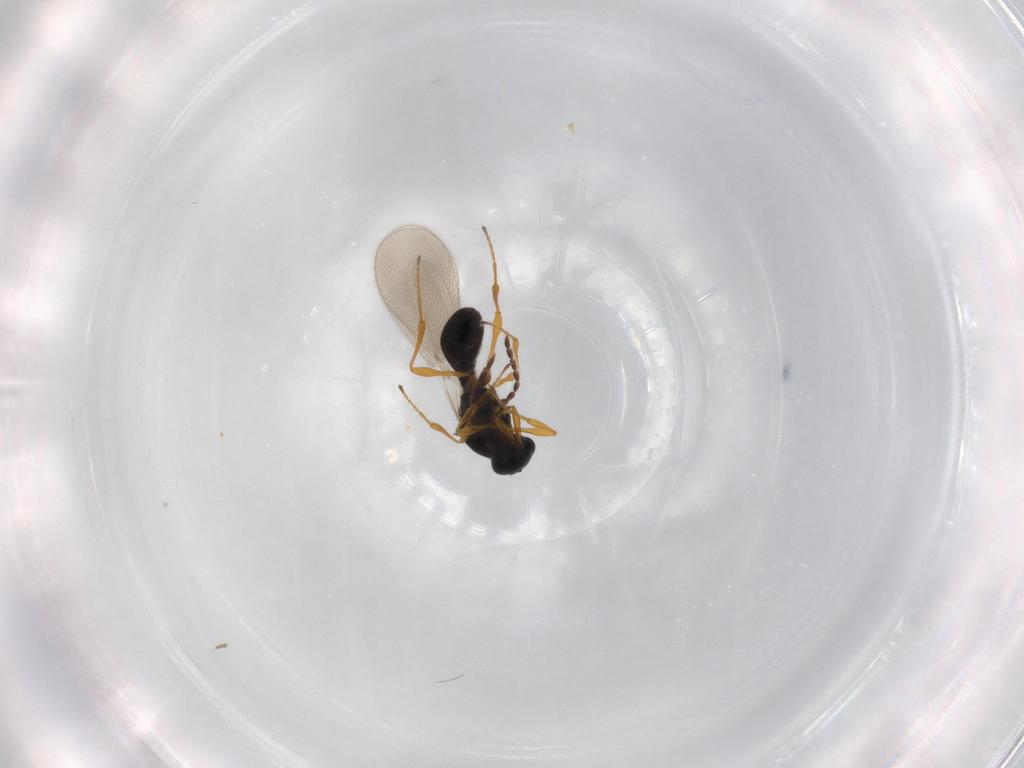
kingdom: Animalia
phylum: Arthropoda
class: Insecta
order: Diptera
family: Mythicomyiidae
